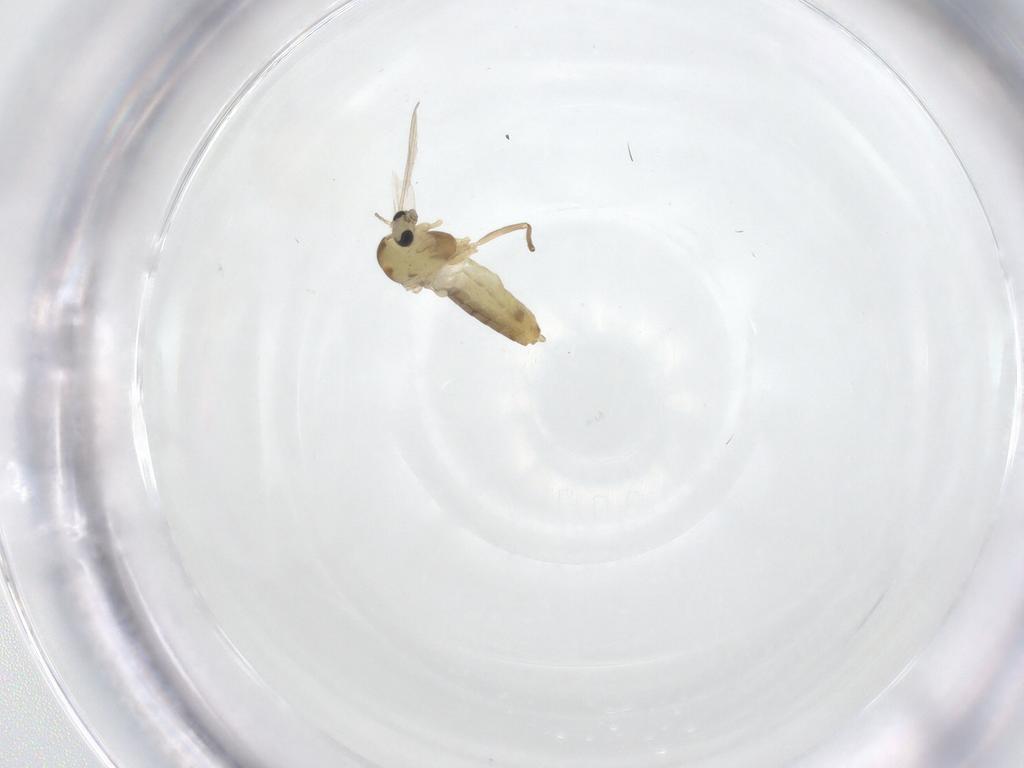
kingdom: Animalia
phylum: Arthropoda
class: Insecta
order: Diptera
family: Chironomidae
